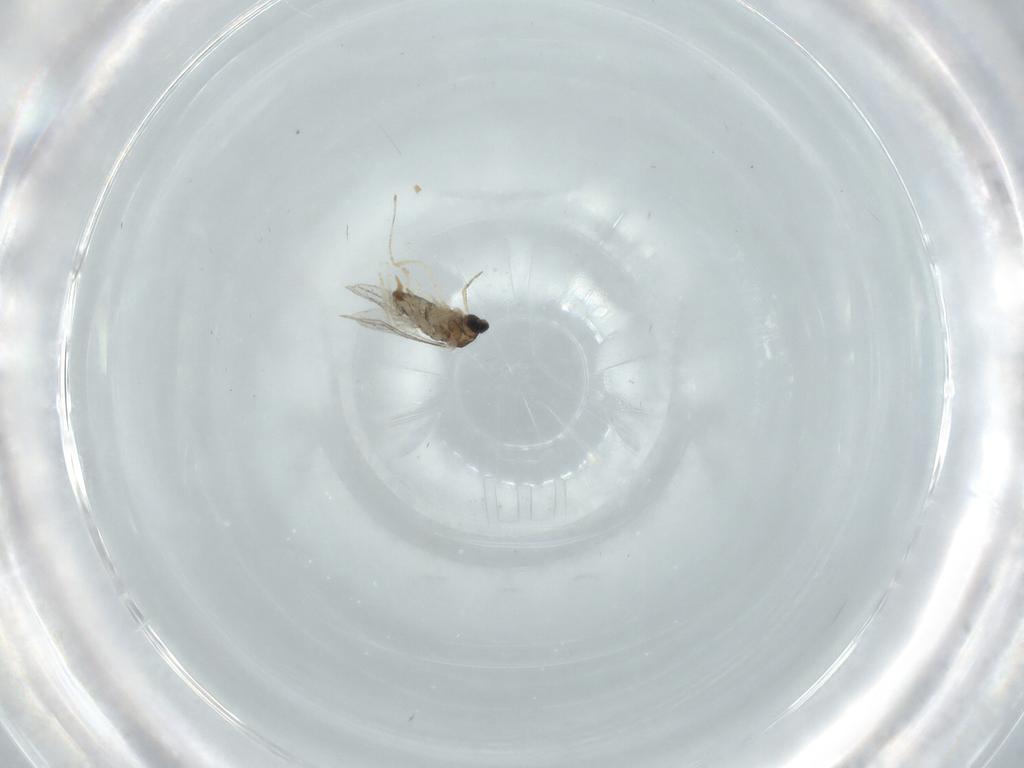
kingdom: Animalia
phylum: Arthropoda
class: Insecta
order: Diptera
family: Cecidomyiidae
